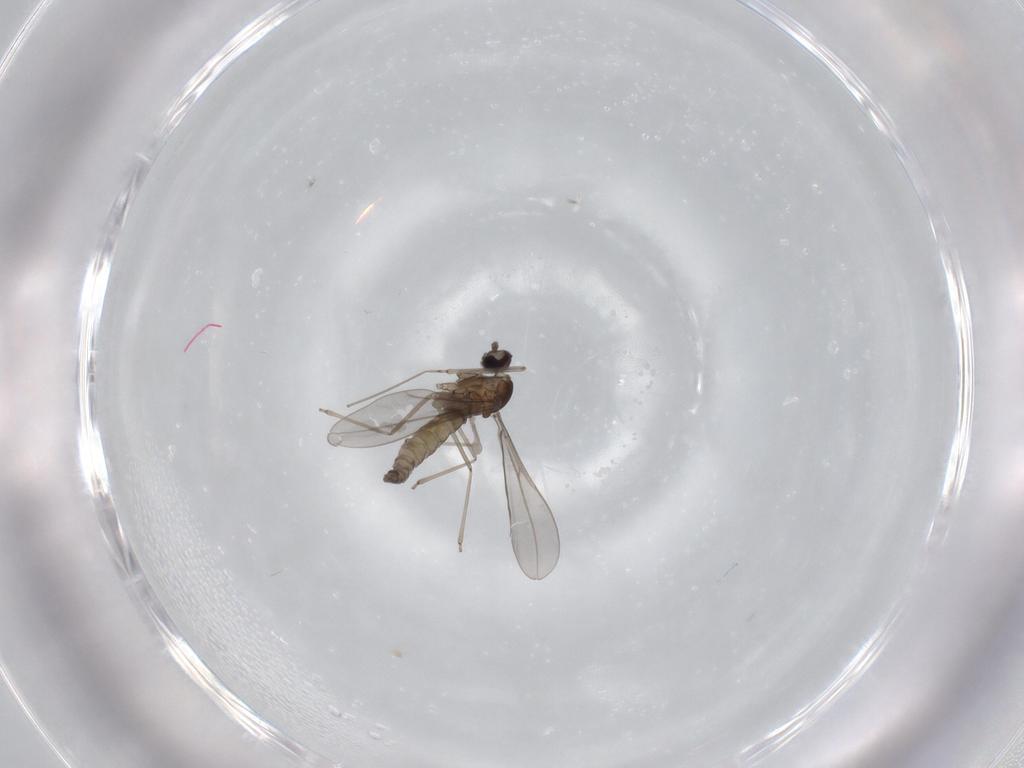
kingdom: Animalia
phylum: Arthropoda
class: Insecta
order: Diptera
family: Cecidomyiidae
